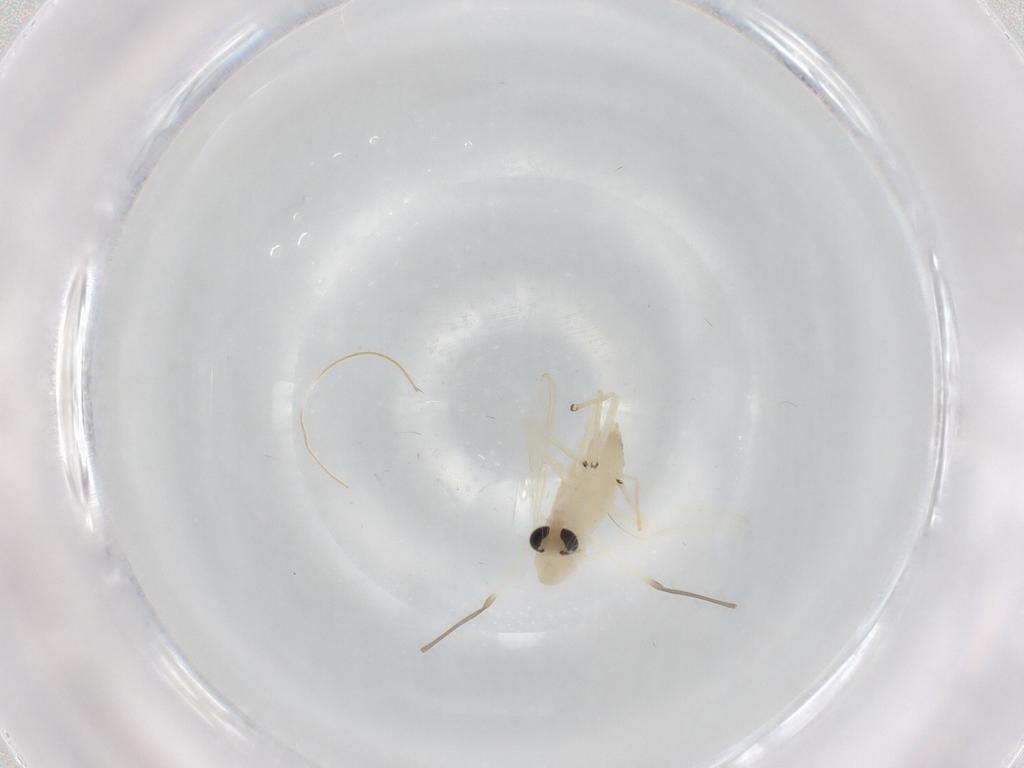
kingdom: Animalia
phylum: Arthropoda
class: Insecta
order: Diptera
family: Chironomidae
